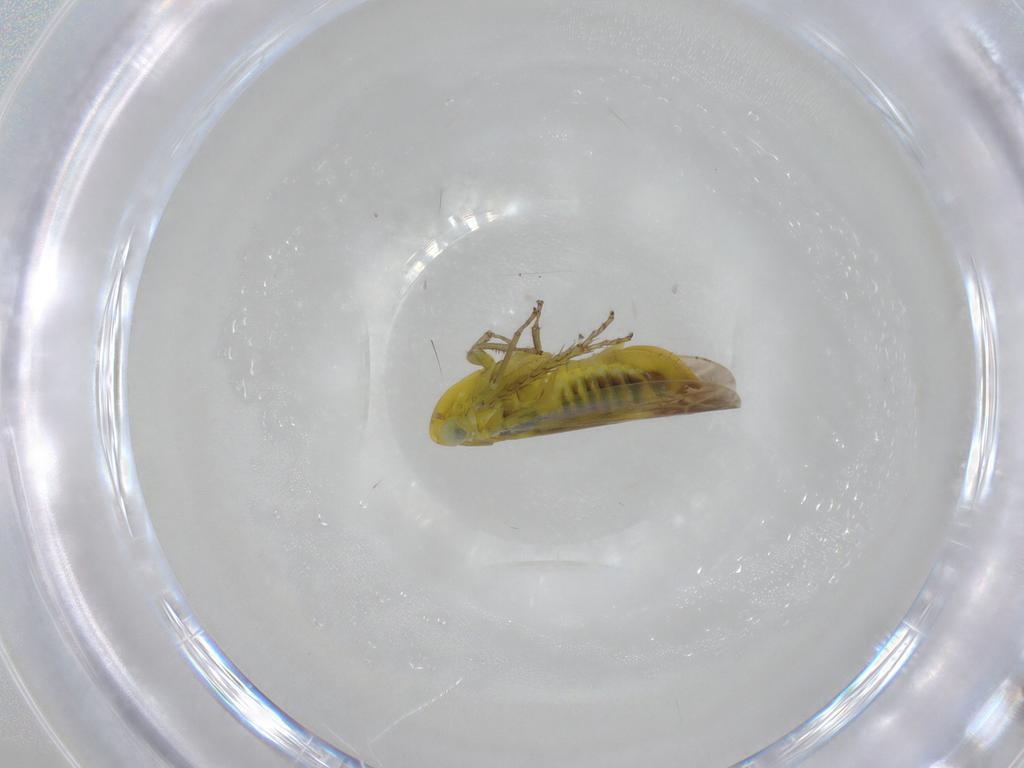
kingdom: Animalia
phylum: Arthropoda
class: Insecta
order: Hemiptera
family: Cicadellidae
